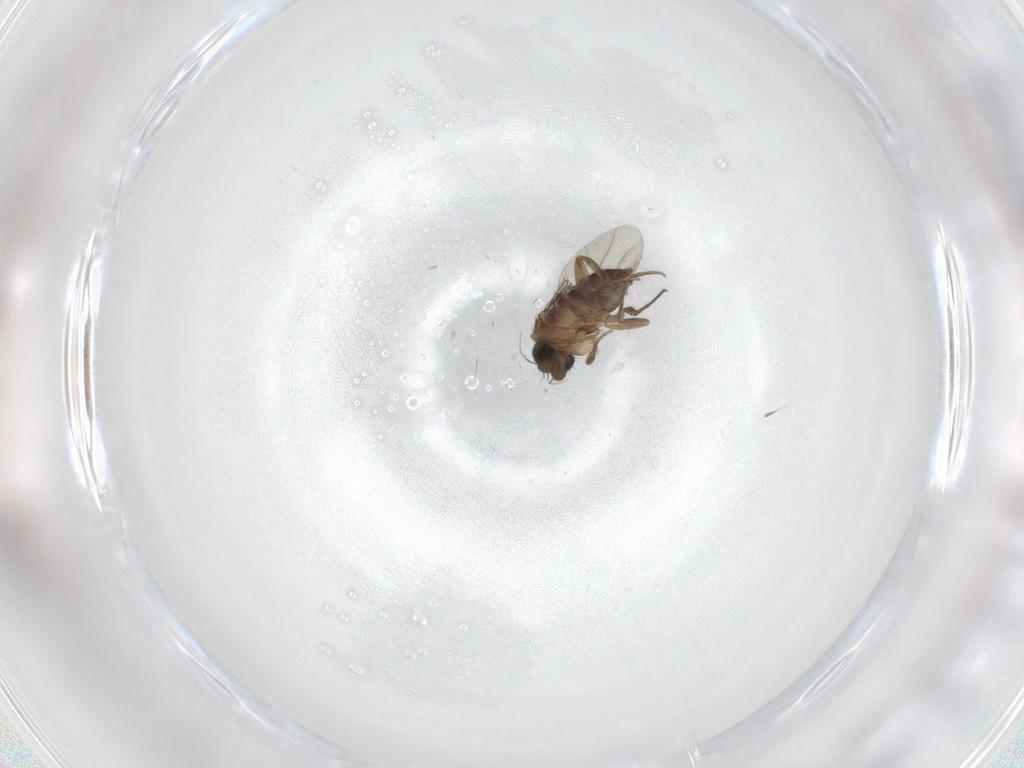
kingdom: Animalia
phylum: Arthropoda
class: Insecta
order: Diptera
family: Phoridae
